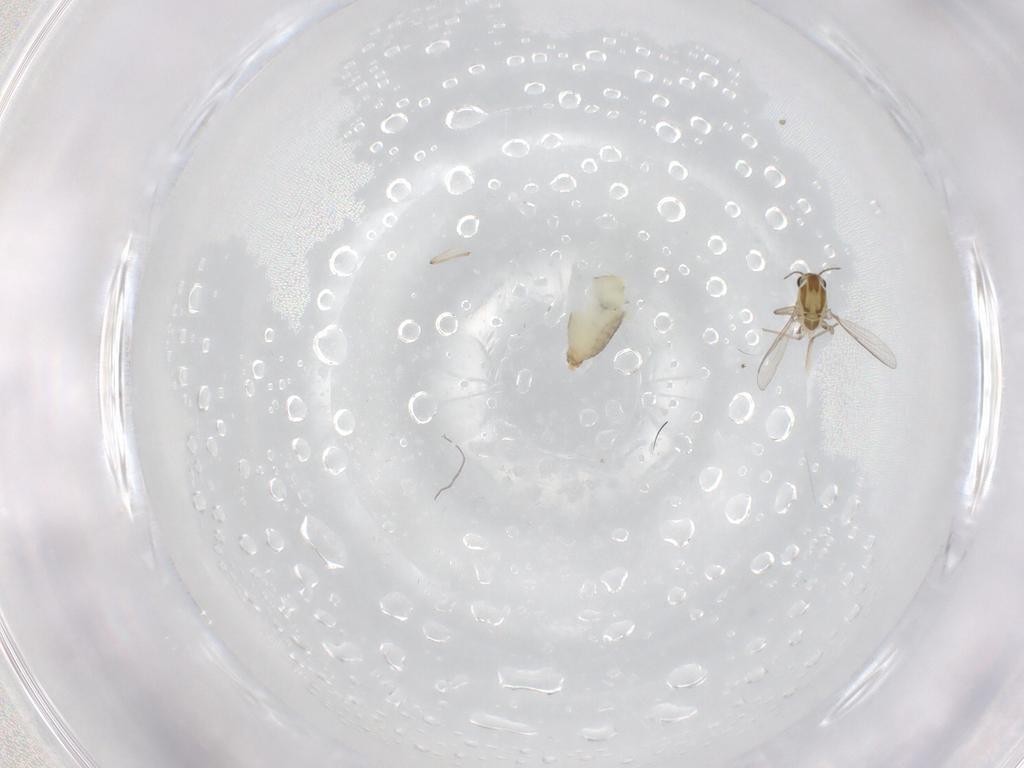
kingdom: Animalia
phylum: Arthropoda
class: Insecta
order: Diptera
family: Chironomidae
